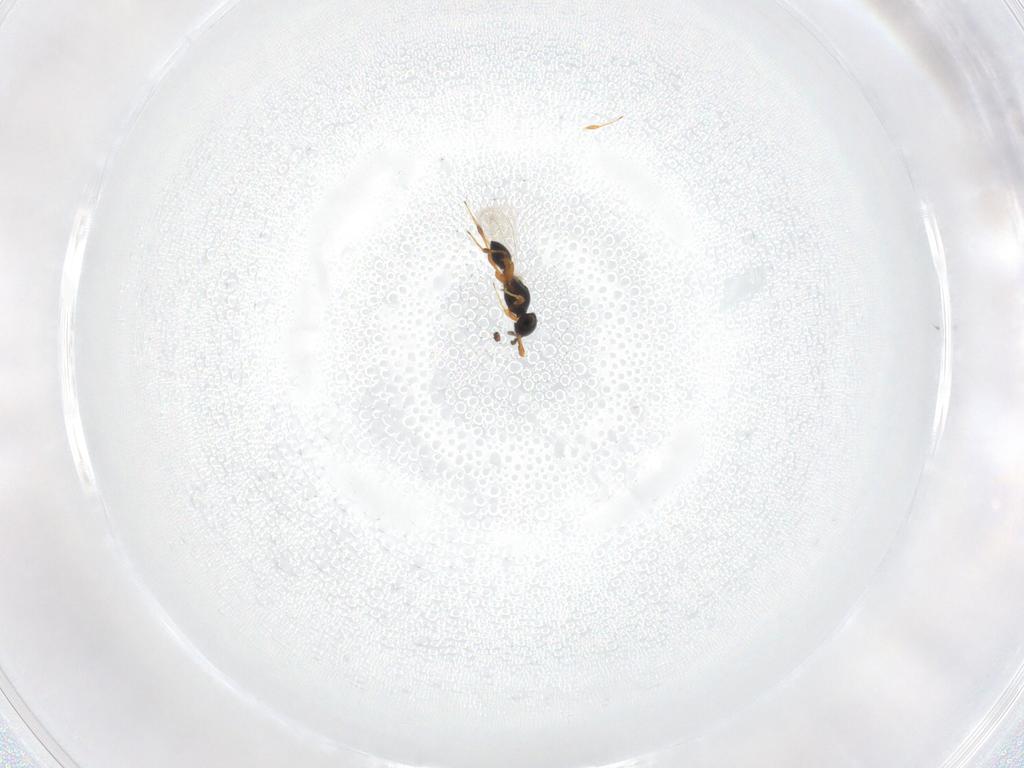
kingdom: Animalia
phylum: Arthropoda
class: Insecta
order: Hymenoptera
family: Platygastridae
